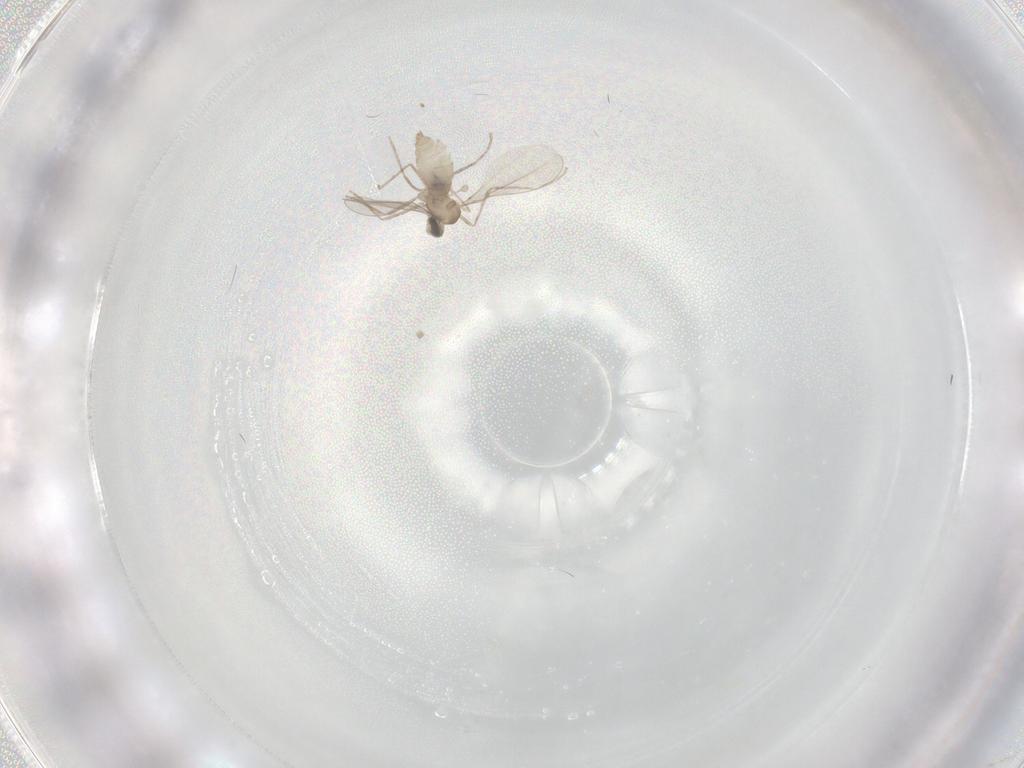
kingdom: Animalia
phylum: Arthropoda
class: Insecta
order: Diptera
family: Cecidomyiidae
